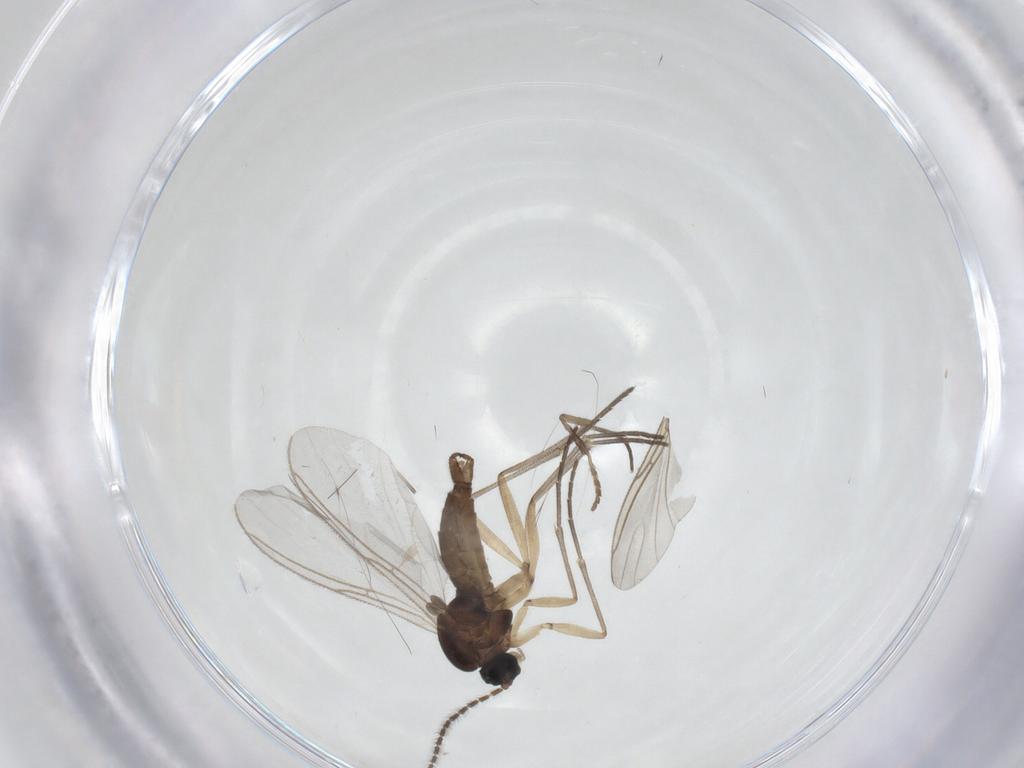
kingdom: Animalia
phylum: Arthropoda
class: Insecta
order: Diptera
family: Sciaridae
